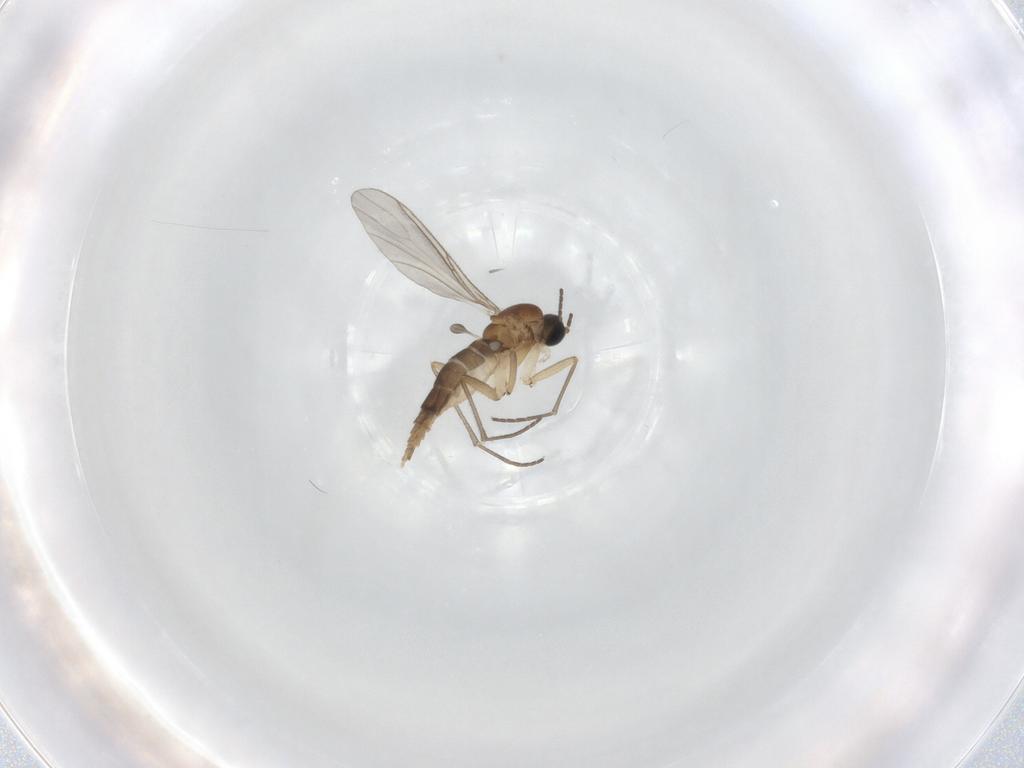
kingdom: Animalia
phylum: Arthropoda
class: Insecta
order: Diptera
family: Sciaridae
